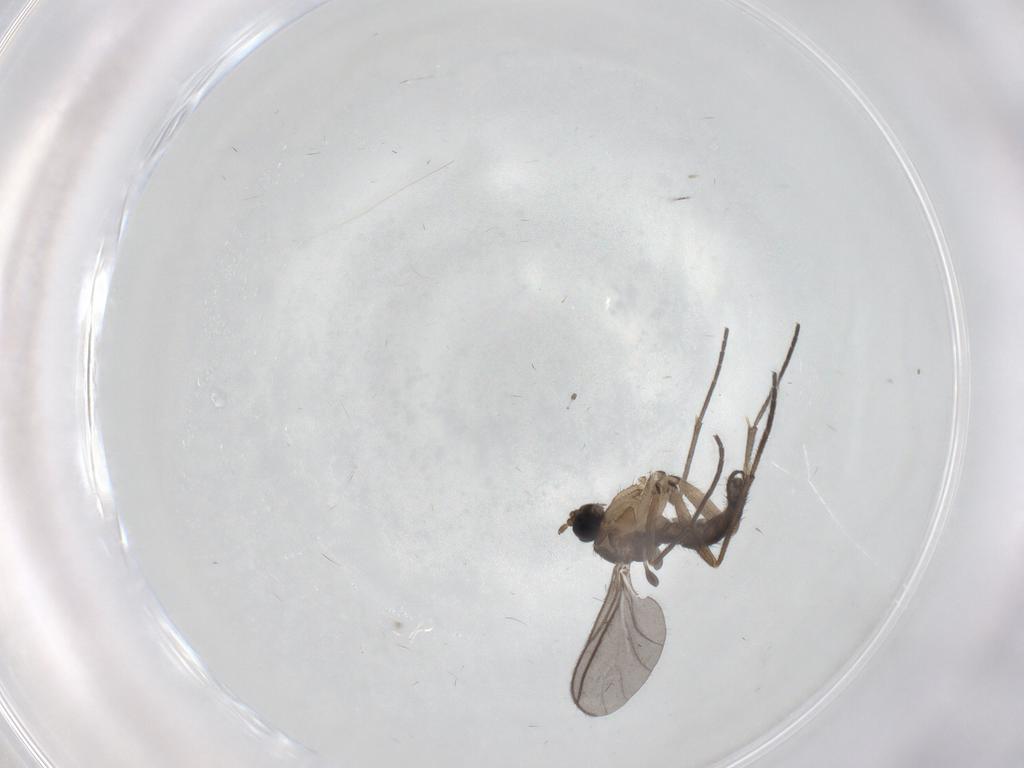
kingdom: Animalia
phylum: Arthropoda
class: Insecta
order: Diptera
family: Sciaridae
